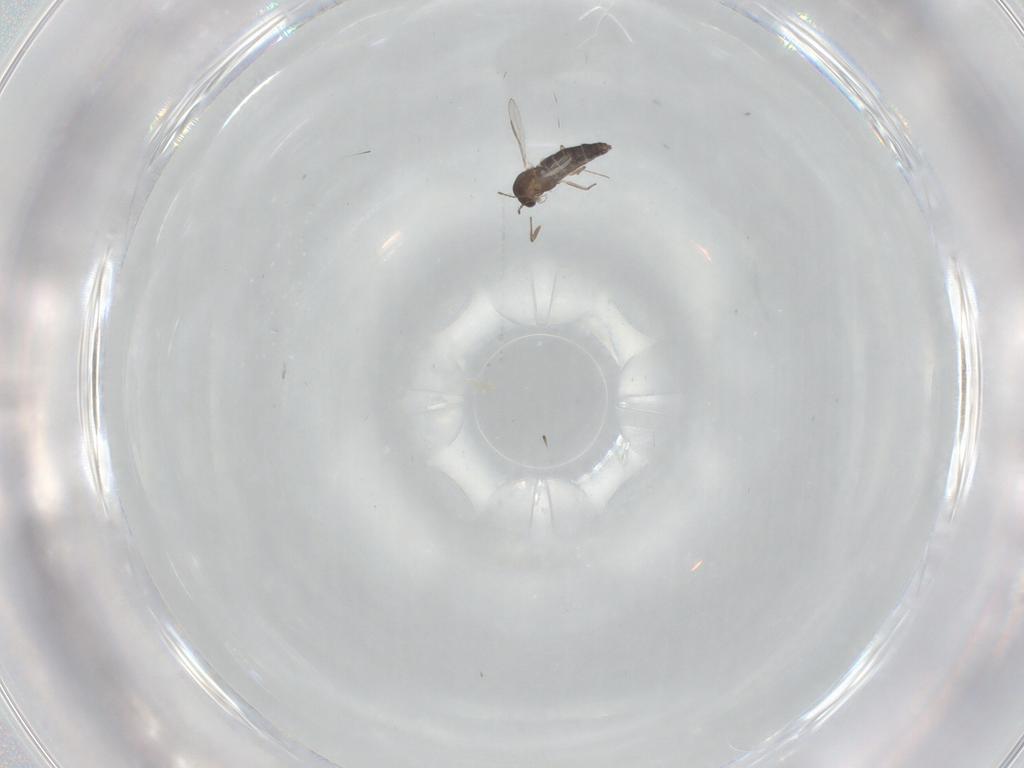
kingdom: Animalia
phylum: Arthropoda
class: Insecta
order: Diptera
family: Chironomidae
